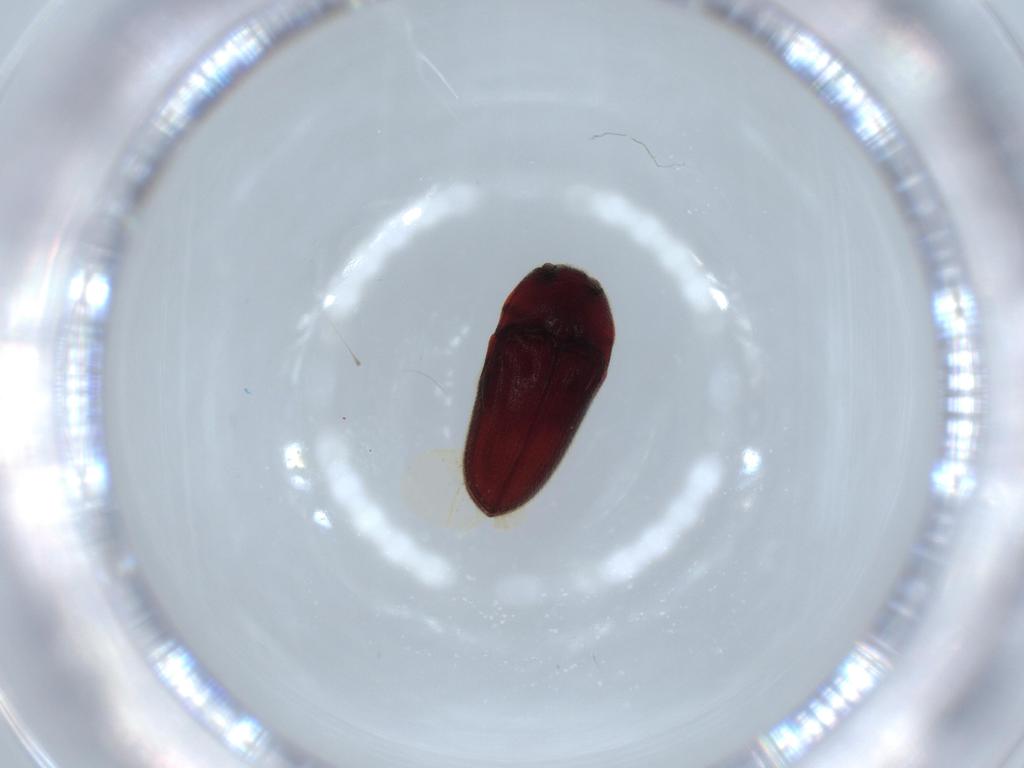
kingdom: Animalia
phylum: Arthropoda
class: Insecta
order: Coleoptera
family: Throscidae
